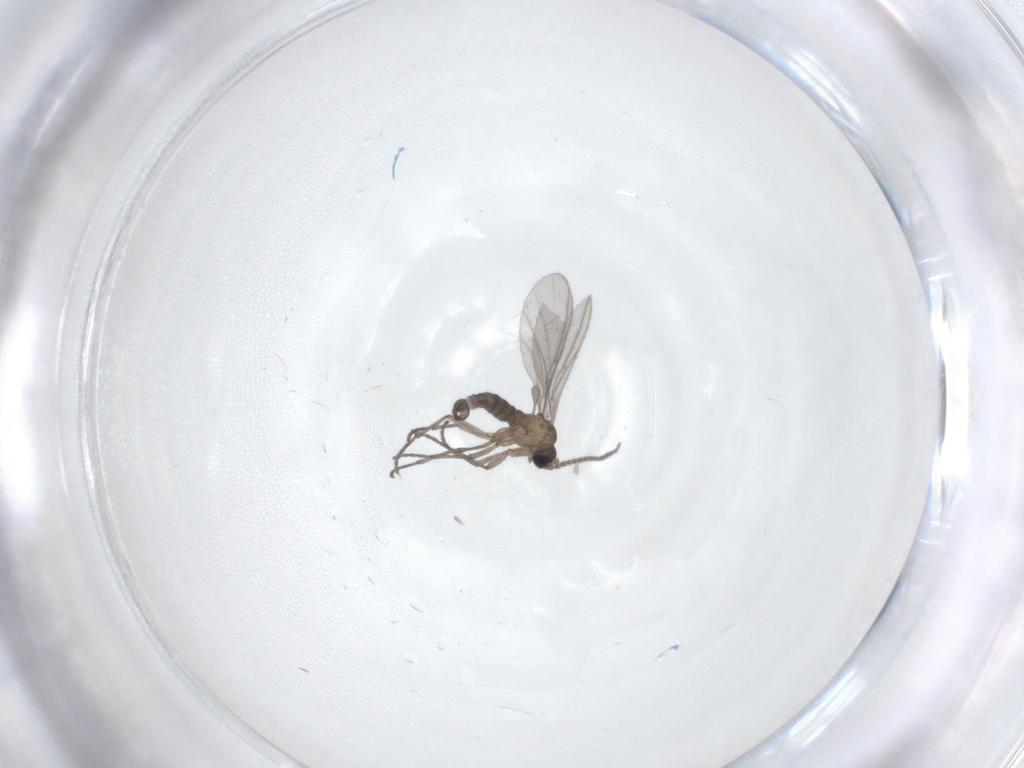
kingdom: Animalia
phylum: Arthropoda
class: Insecta
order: Diptera
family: Sciaridae
